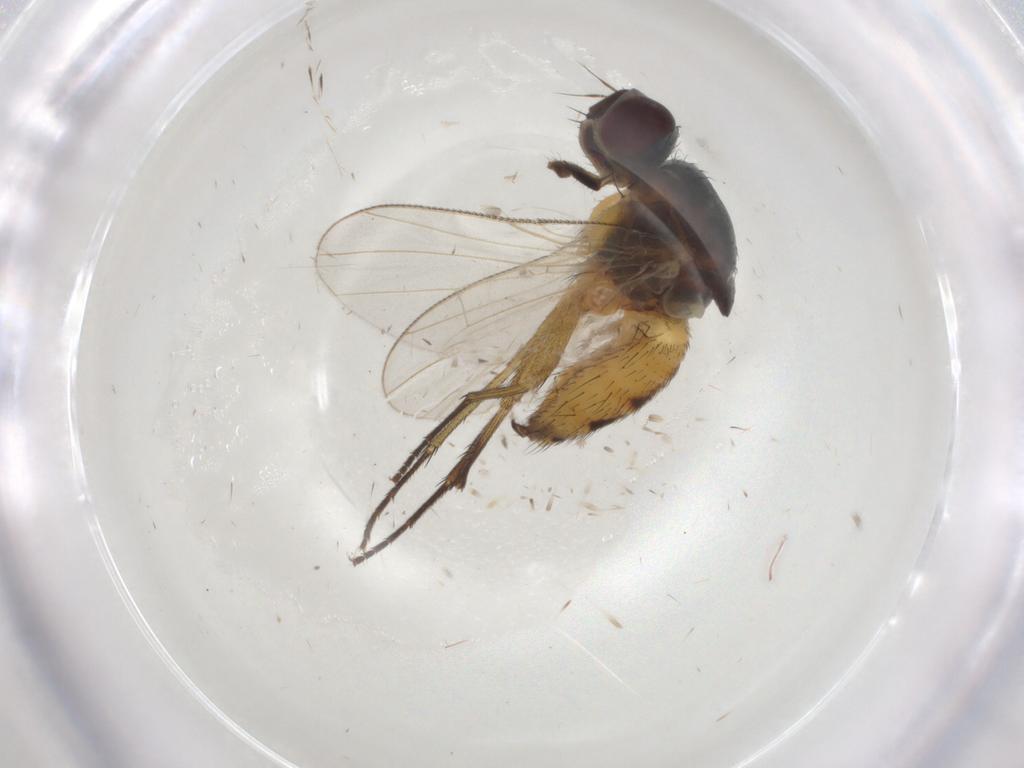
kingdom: Animalia
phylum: Arthropoda
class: Insecta
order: Diptera
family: Muscidae
